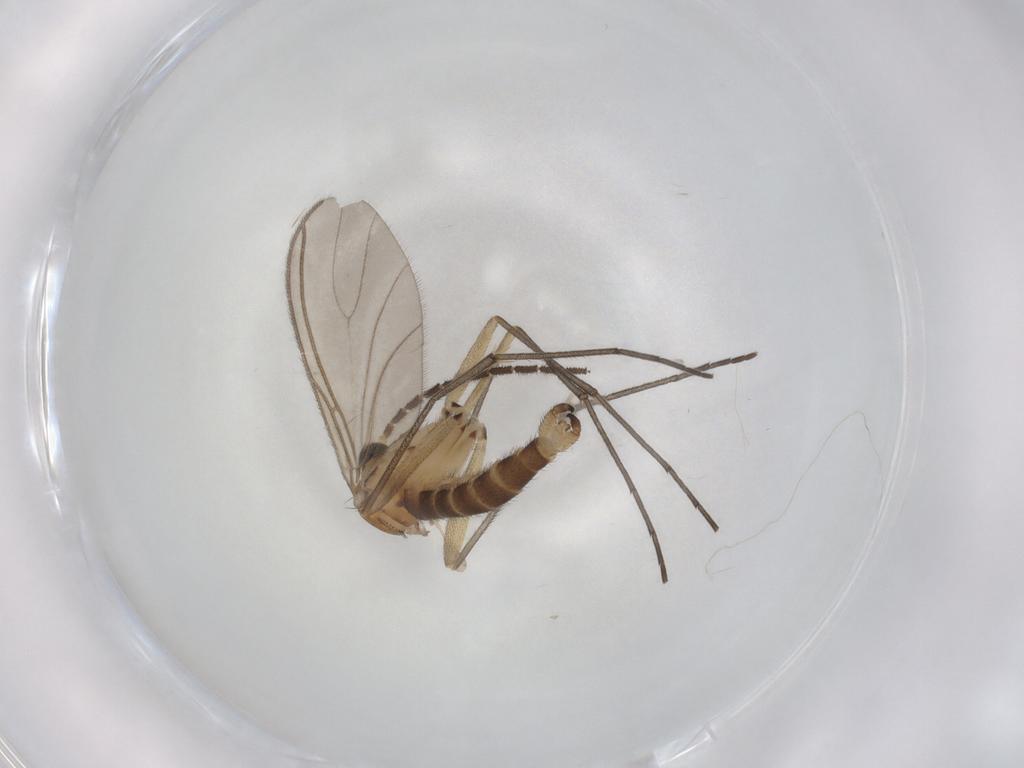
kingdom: Animalia
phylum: Arthropoda
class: Insecta
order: Diptera
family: Sciaridae
